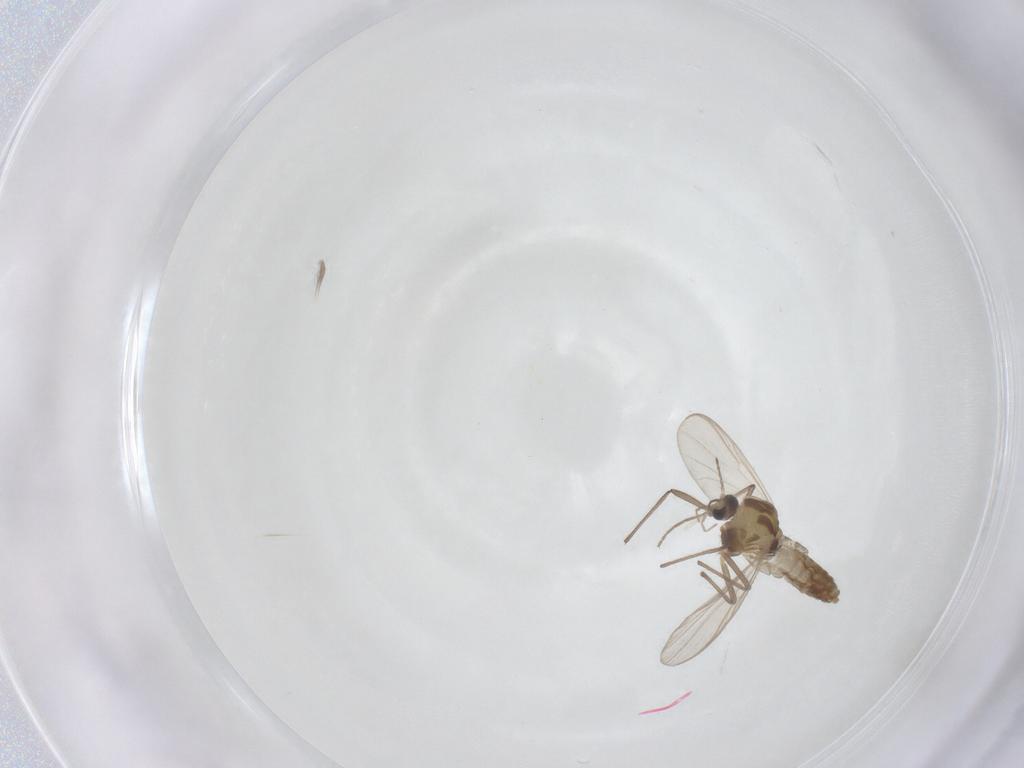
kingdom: Animalia
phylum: Arthropoda
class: Insecta
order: Diptera
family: Chironomidae
